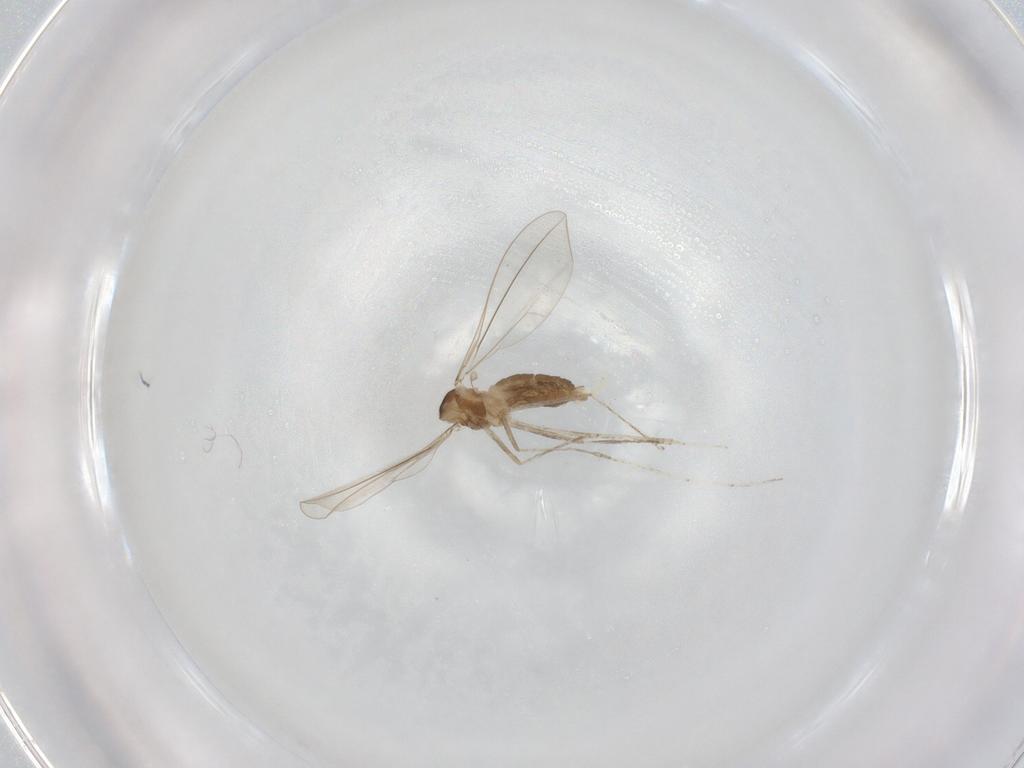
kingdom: Animalia
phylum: Arthropoda
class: Insecta
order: Diptera
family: Cecidomyiidae
